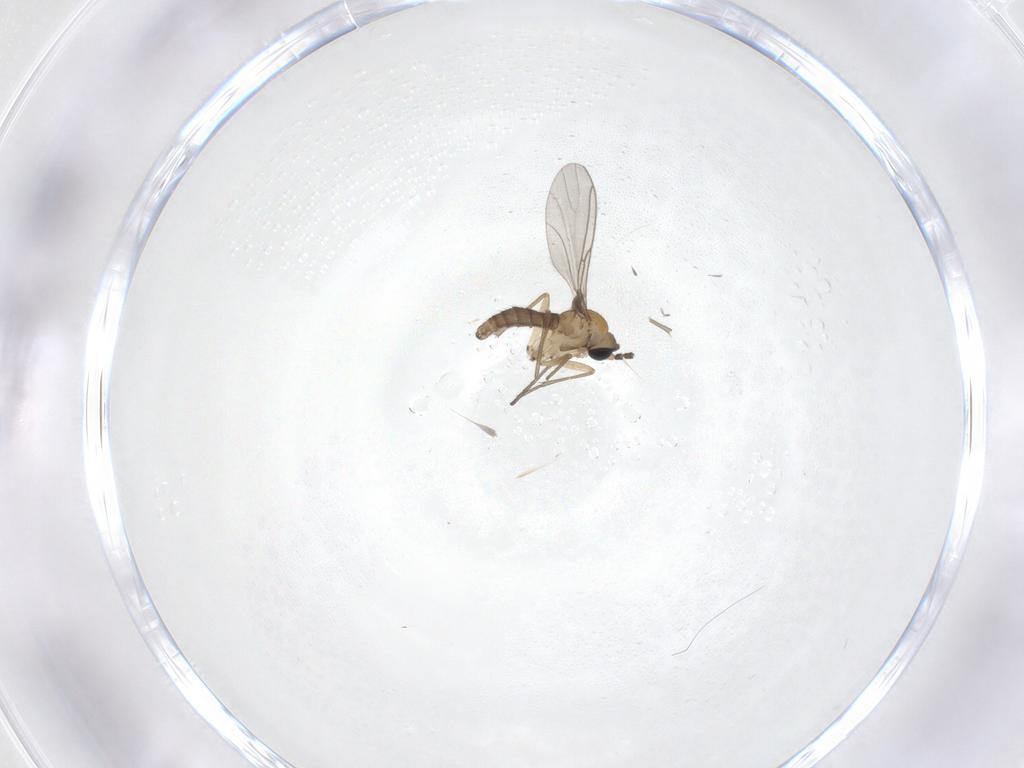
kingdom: Animalia
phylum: Arthropoda
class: Insecta
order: Diptera
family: Sciaridae
